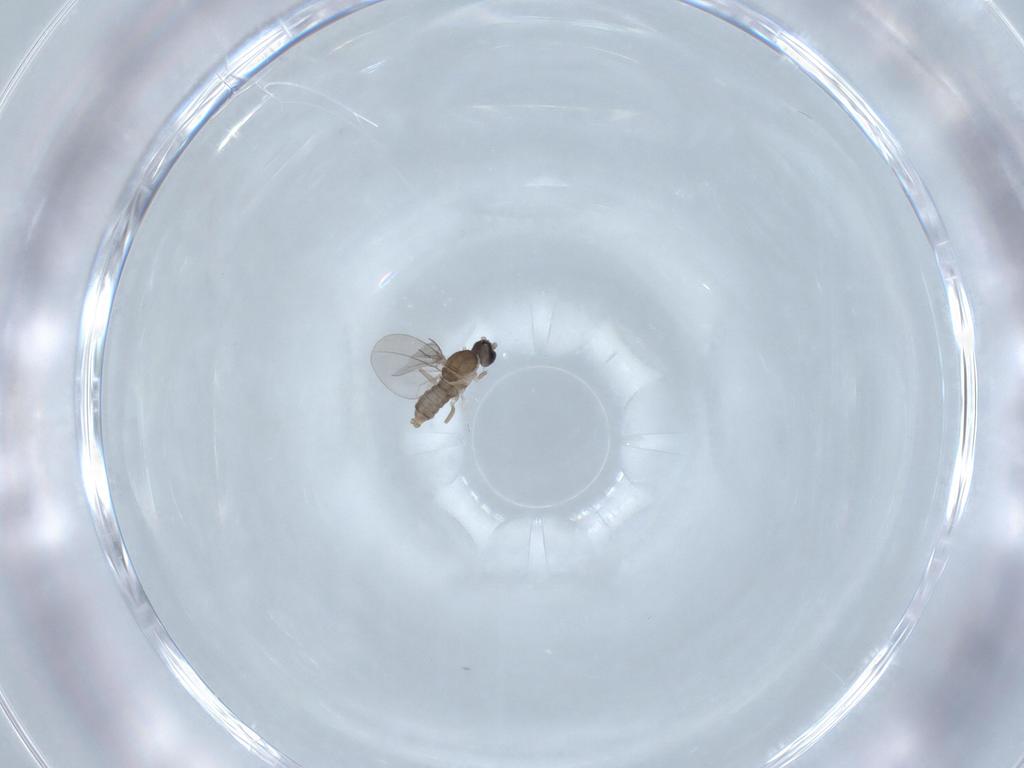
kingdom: Animalia
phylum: Arthropoda
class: Insecta
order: Diptera
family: Cecidomyiidae
